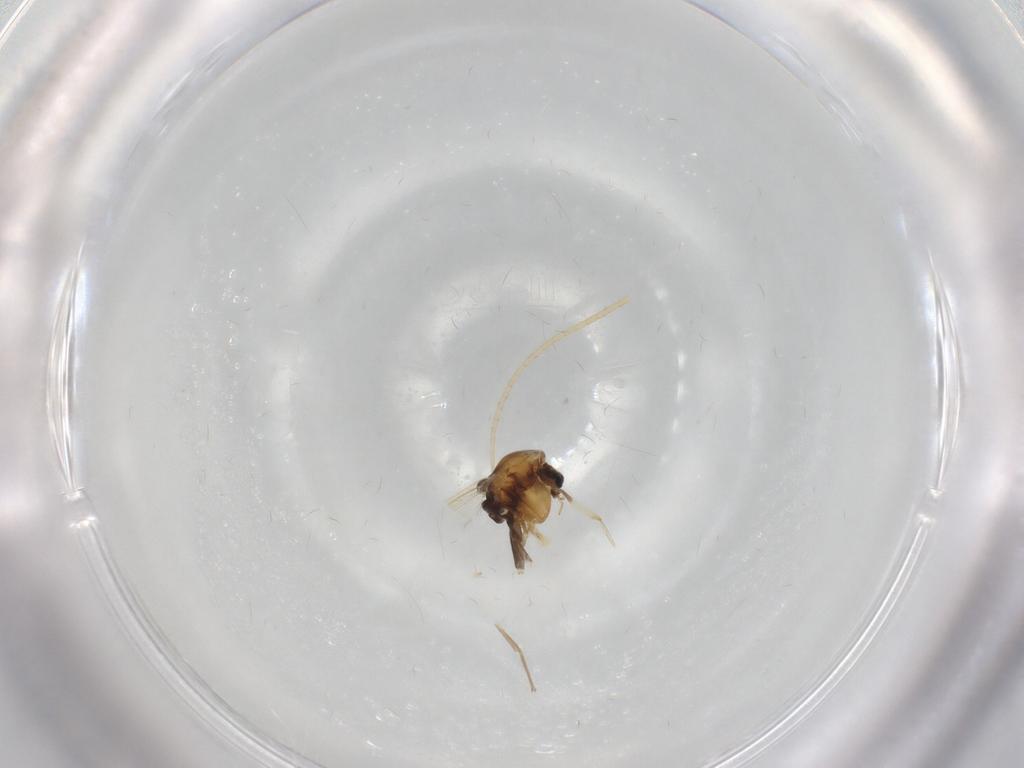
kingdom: Animalia
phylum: Arthropoda
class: Insecta
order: Diptera
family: Chironomidae
